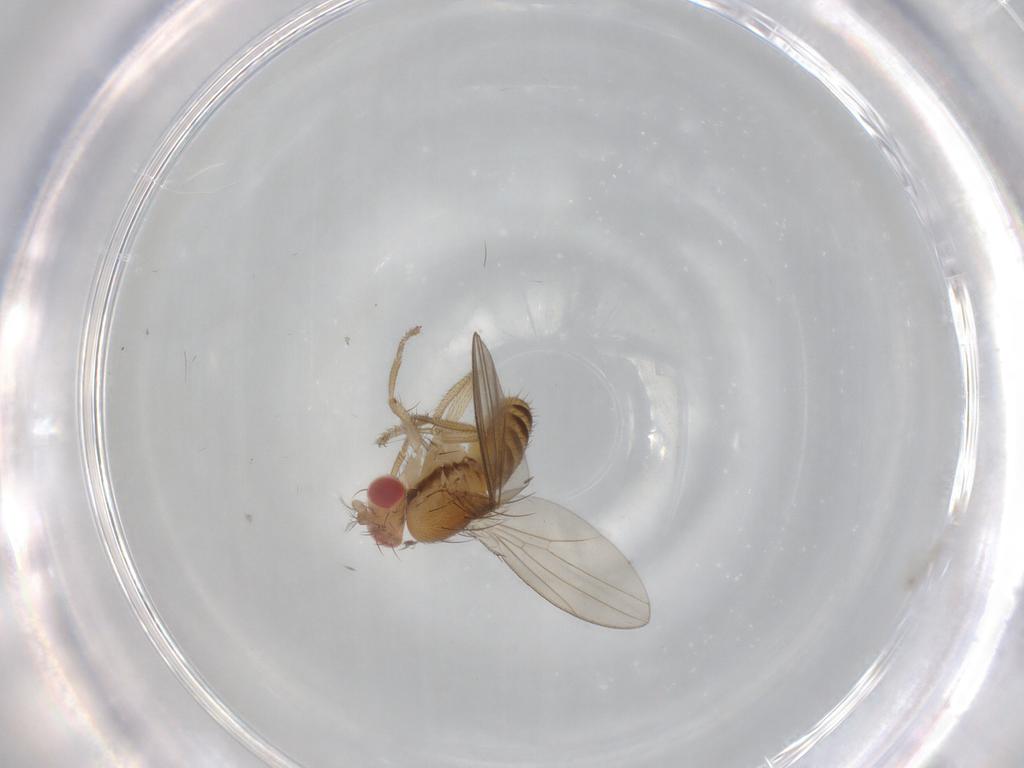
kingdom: Animalia
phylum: Arthropoda
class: Insecta
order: Diptera
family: Drosophilidae
